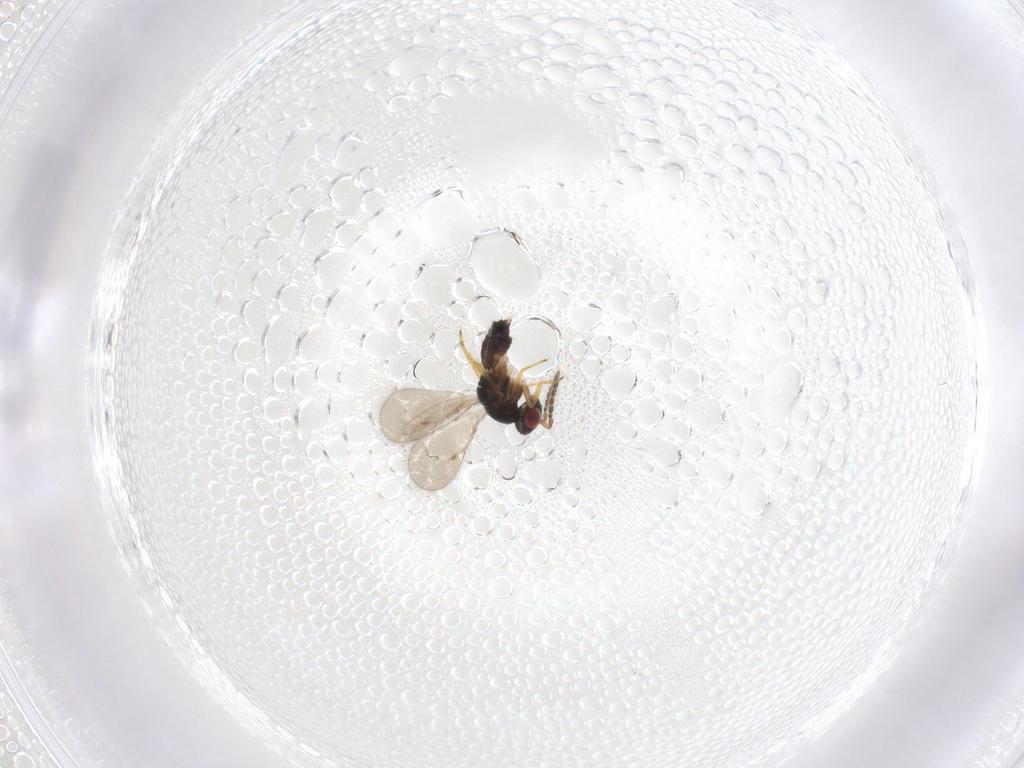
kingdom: Animalia
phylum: Arthropoda
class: Insecta
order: Hymenoptera
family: Eulophidae
